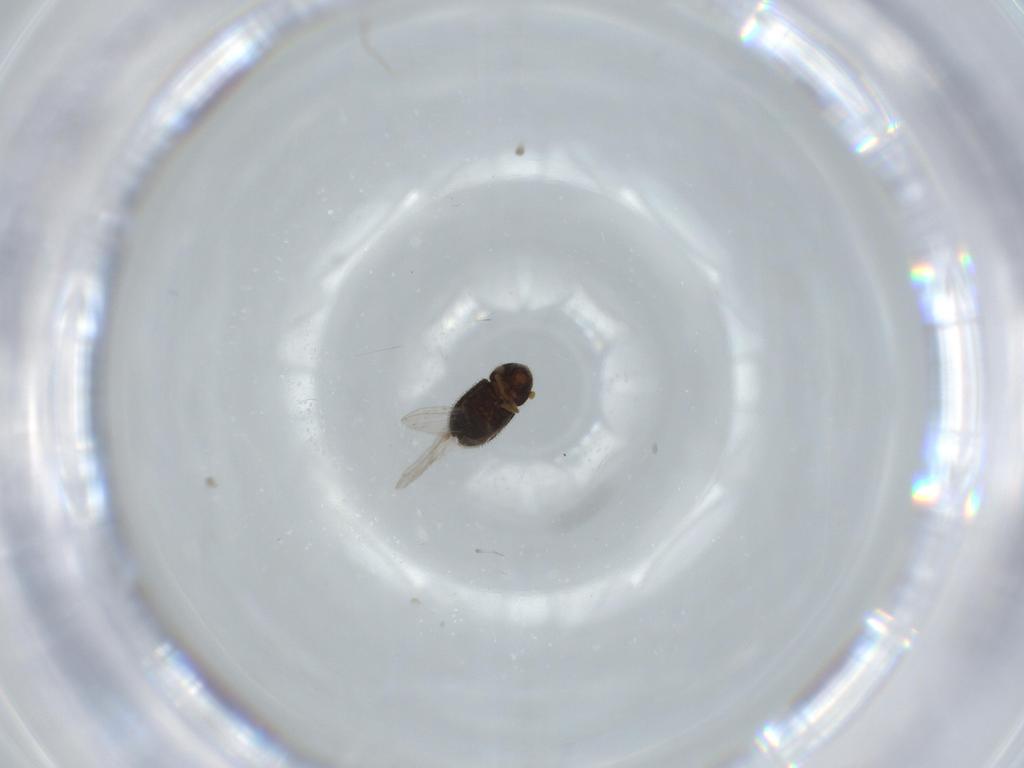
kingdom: Animalia
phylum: Arthropoda
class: Insecta
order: Coleoptera
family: Curculionidae
